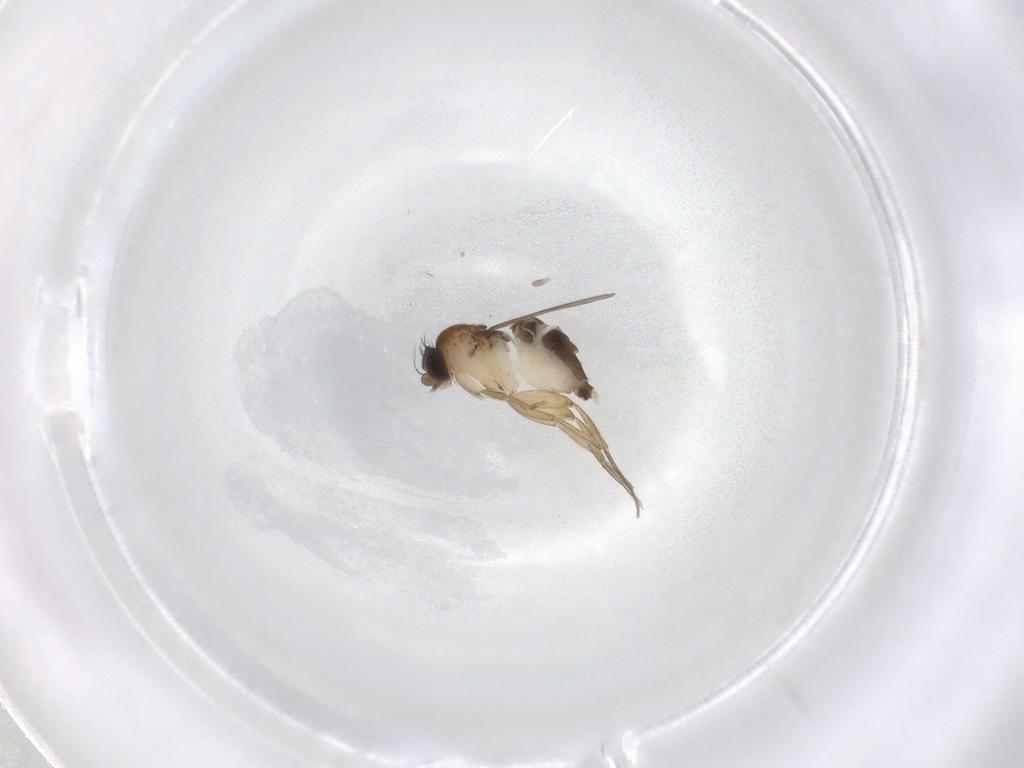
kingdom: Animalia
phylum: Arthropoda
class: Insecta
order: Diptera
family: Phoridae
